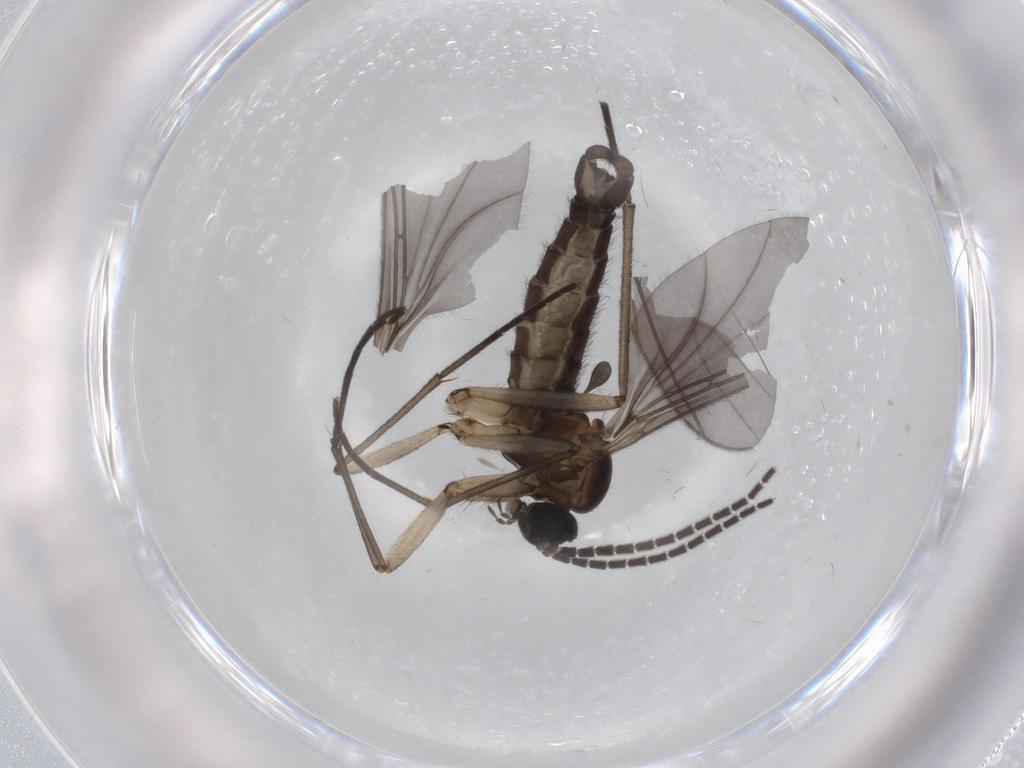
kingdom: Animalia
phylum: Arthropoda
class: Insecta
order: Diptera
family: Sciaridae
